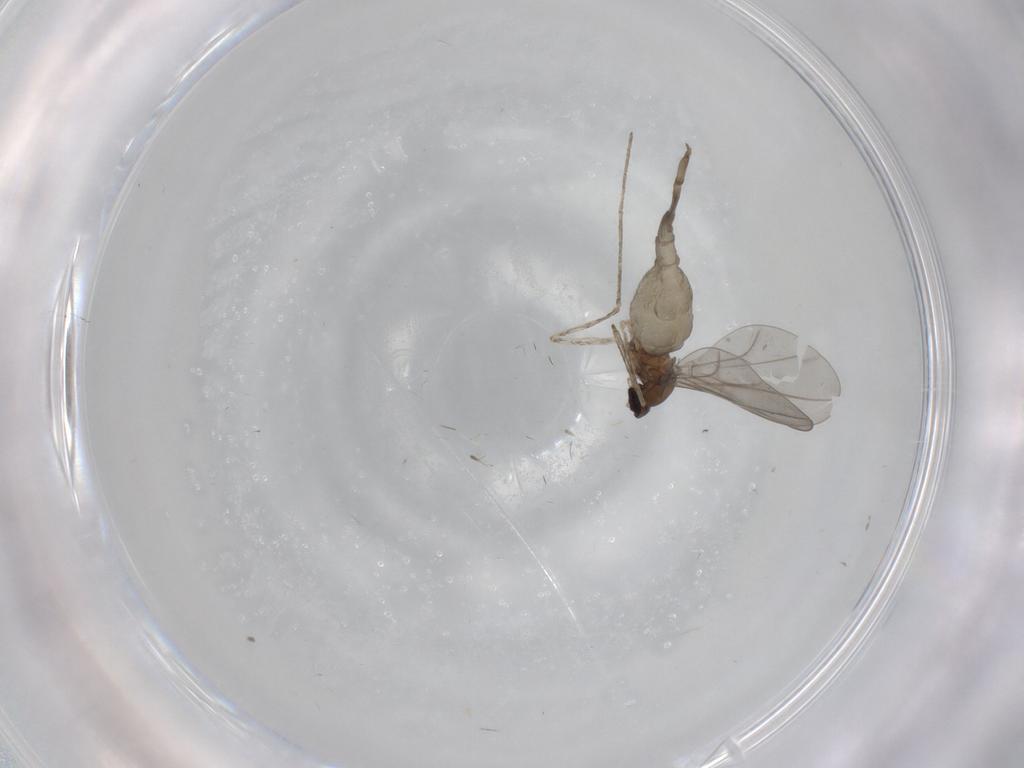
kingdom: Animalia
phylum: Arthropoda
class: Insecta
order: Diptera
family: Cecidomyiidae
